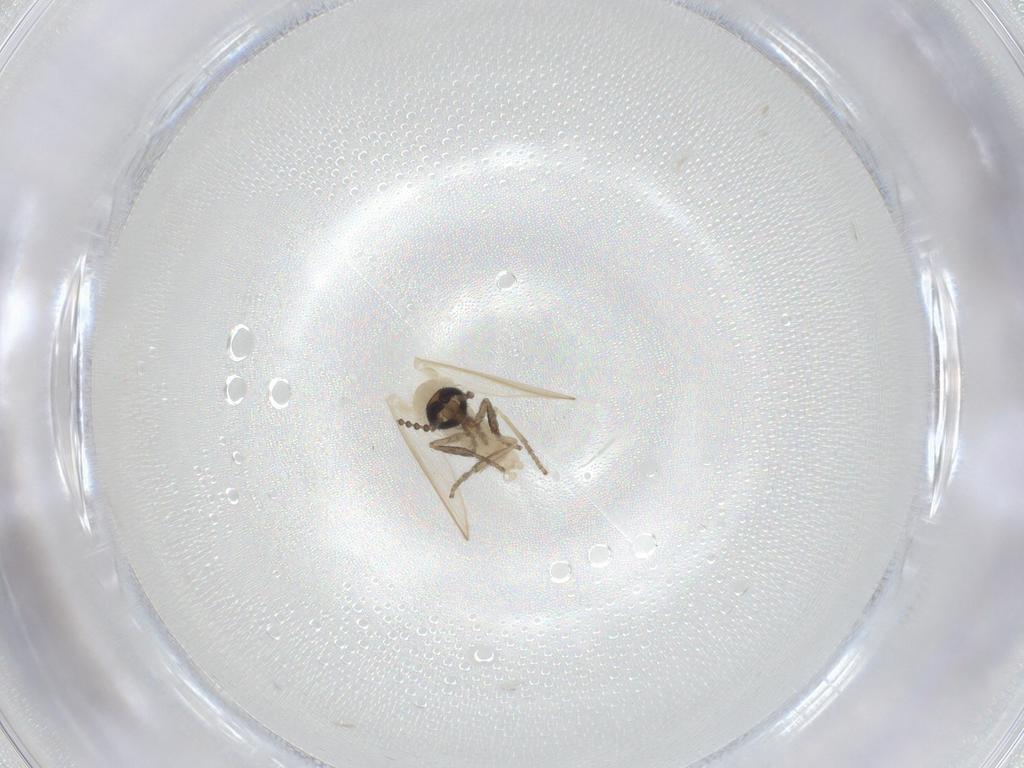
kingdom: Animalia
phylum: Arthropoda
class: Insecta
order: Diptera
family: Psychodidae
